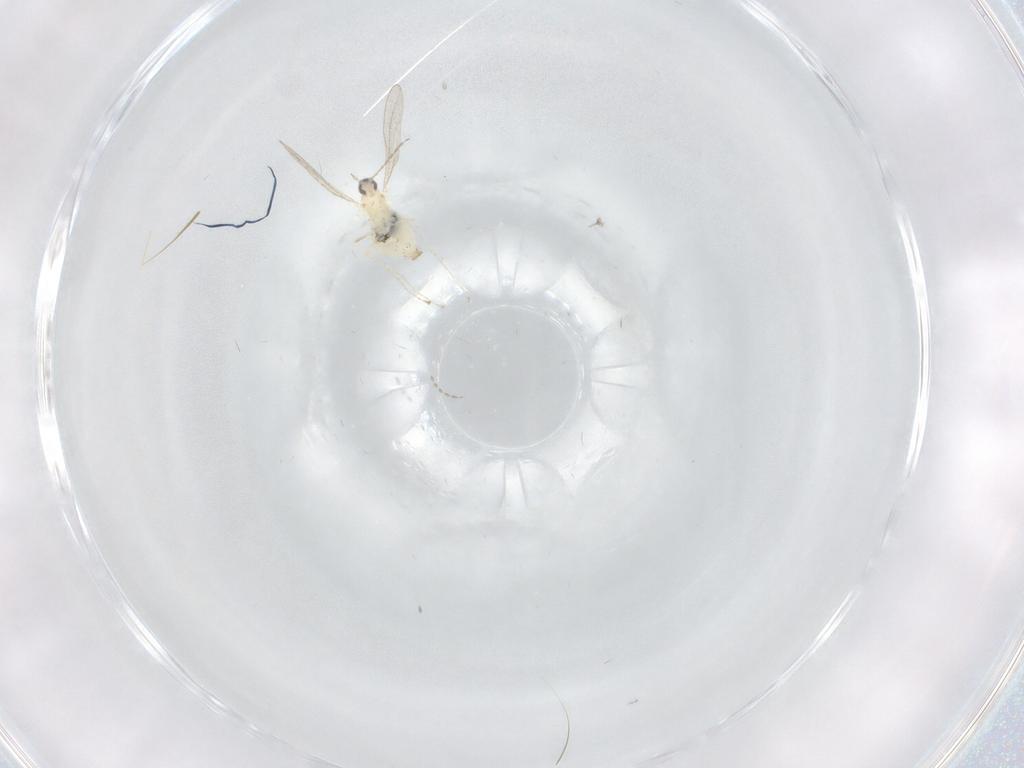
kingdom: Animalia
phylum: Arthropoda
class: Insecta
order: Diptera
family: Cecidomyiidae
